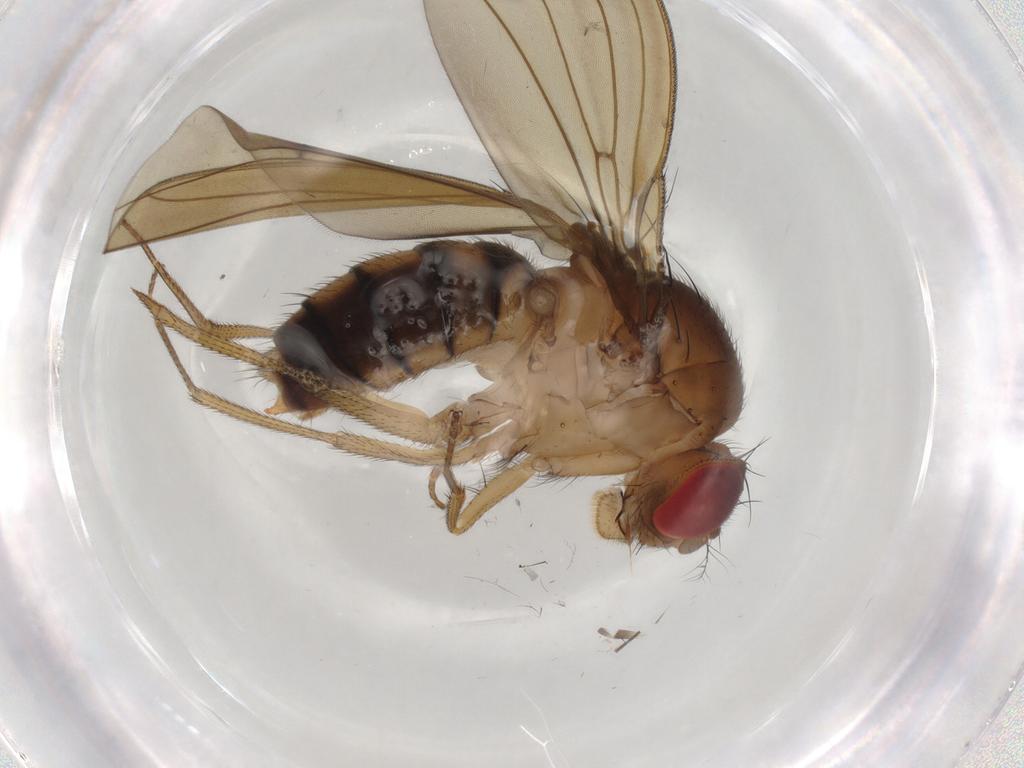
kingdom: Animalia
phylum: Arthropoda
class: Insecta
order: Diptera
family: Drosophilidae
